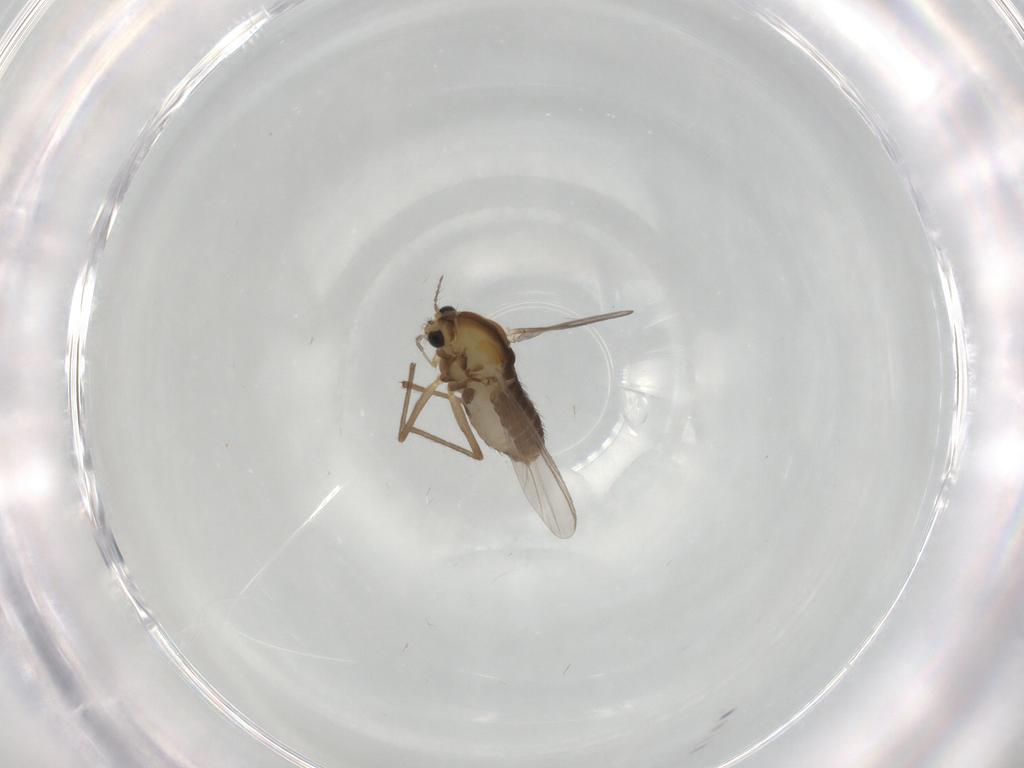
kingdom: Animalia
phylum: Arthropoda
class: Insecta
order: Diptera
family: Chironomidae
